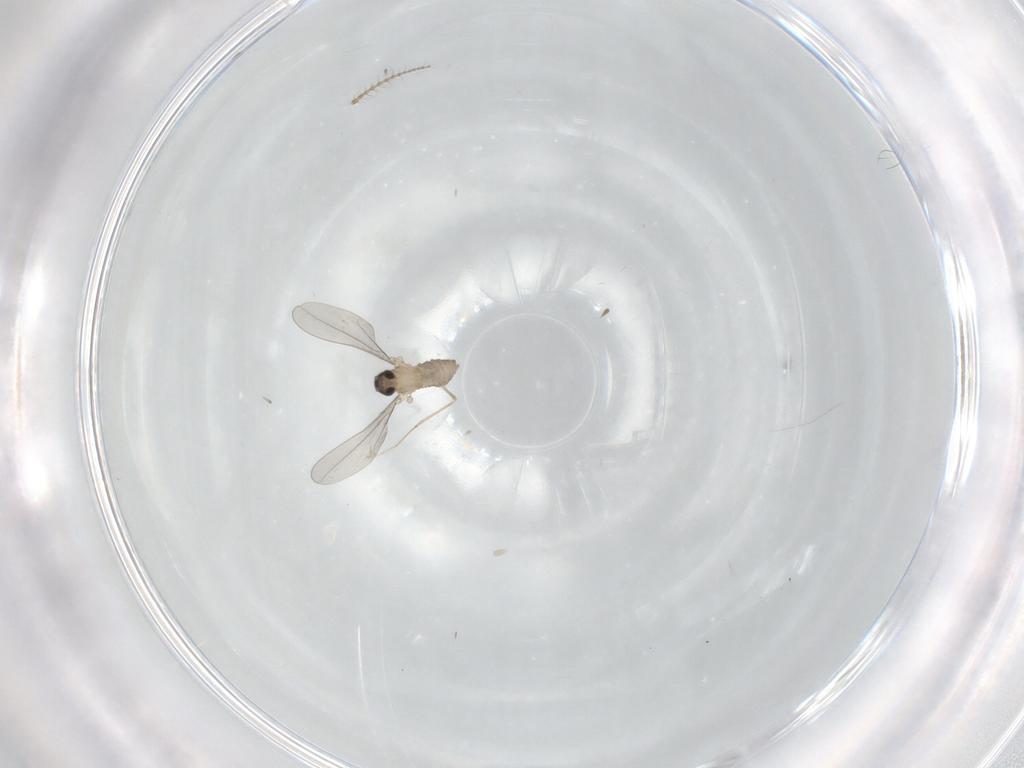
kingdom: Animalia
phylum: Arthropoda
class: Insecta
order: Diptera
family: Cecidomyiidae
